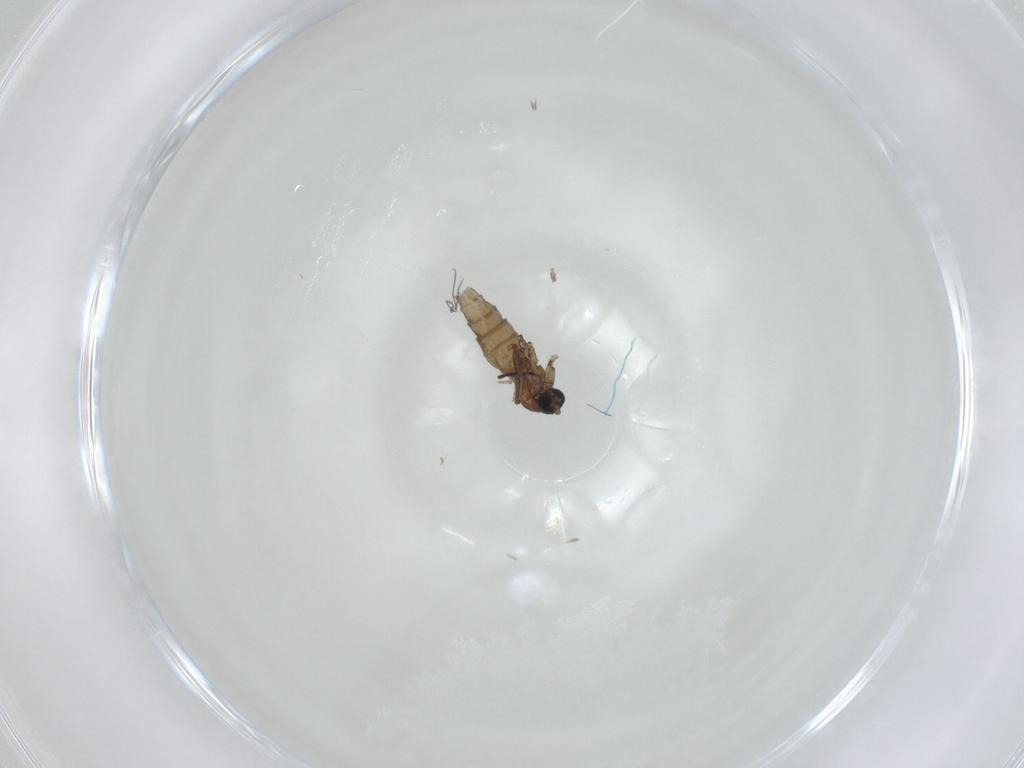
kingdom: Animalia
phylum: Arthropoda
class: Insecta
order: Diptera
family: Sciaridae
